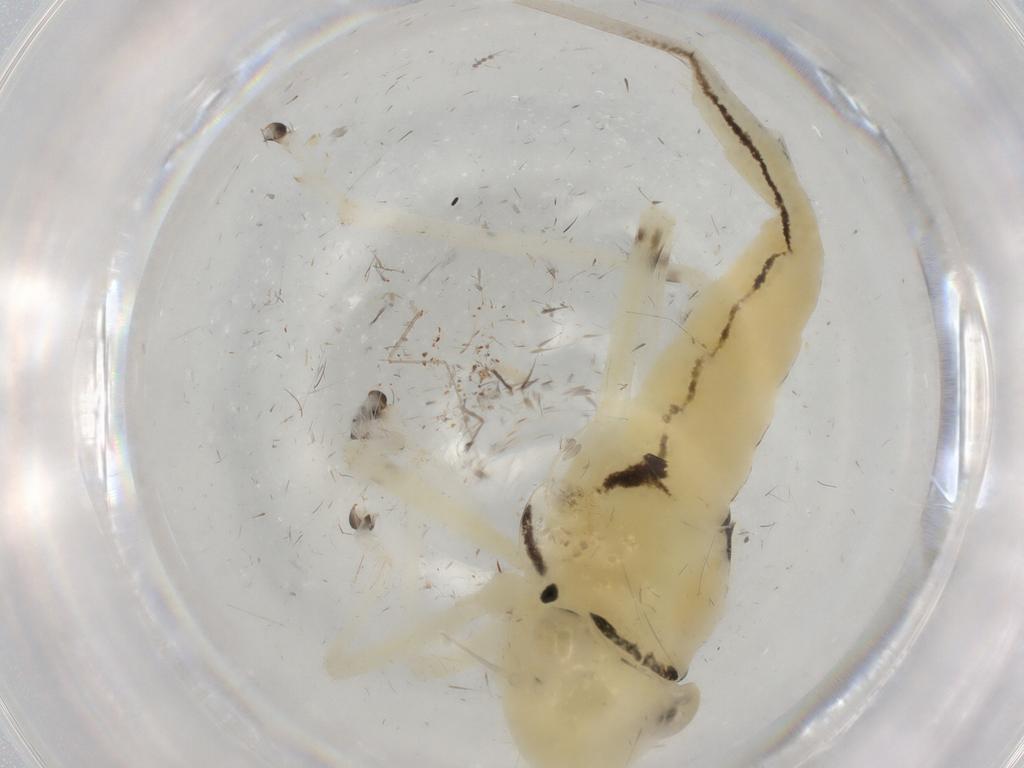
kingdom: Animalia
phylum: Arthropoda
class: Insecta
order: Hemiptera
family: Cicadellidae
